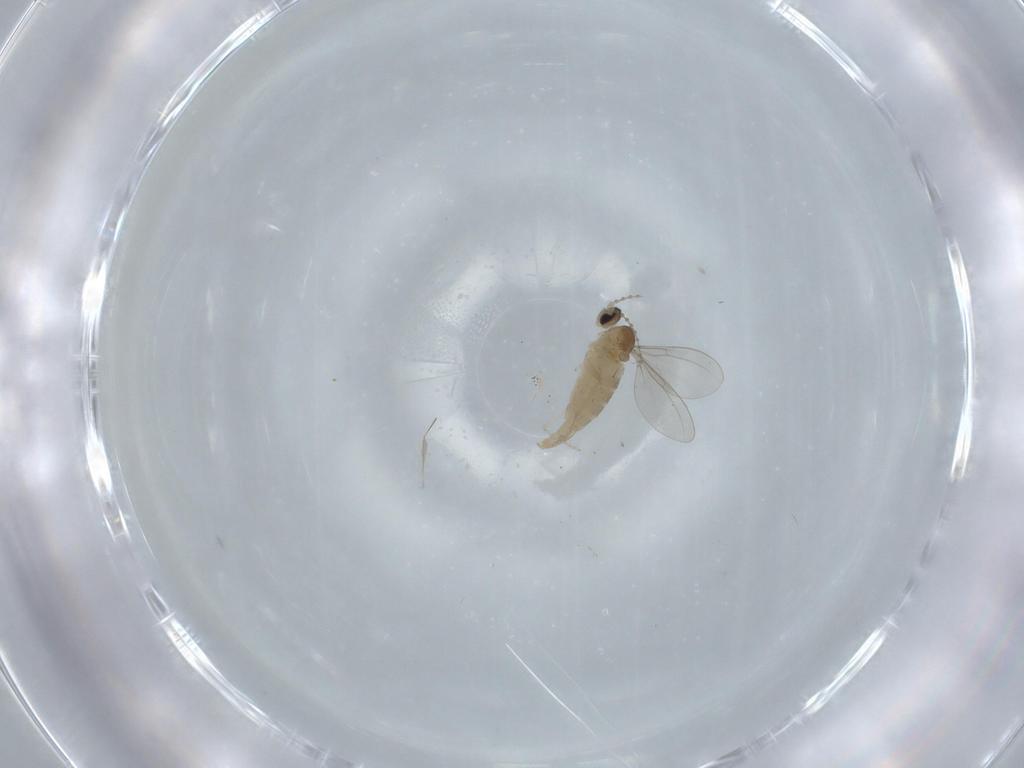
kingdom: Animalia
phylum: Arthropoda
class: Insecta
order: Diptera
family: Cecidomyiidae
